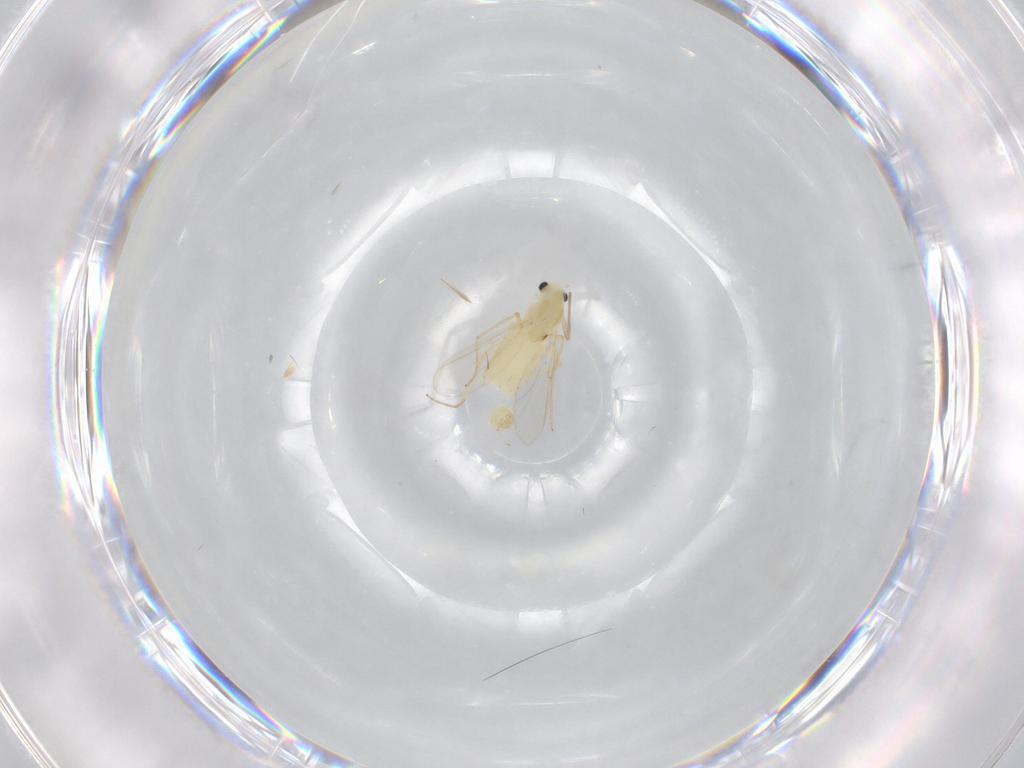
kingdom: Animalia
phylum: Arthropoda
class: Insecta
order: Diptera
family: Chironomidae
